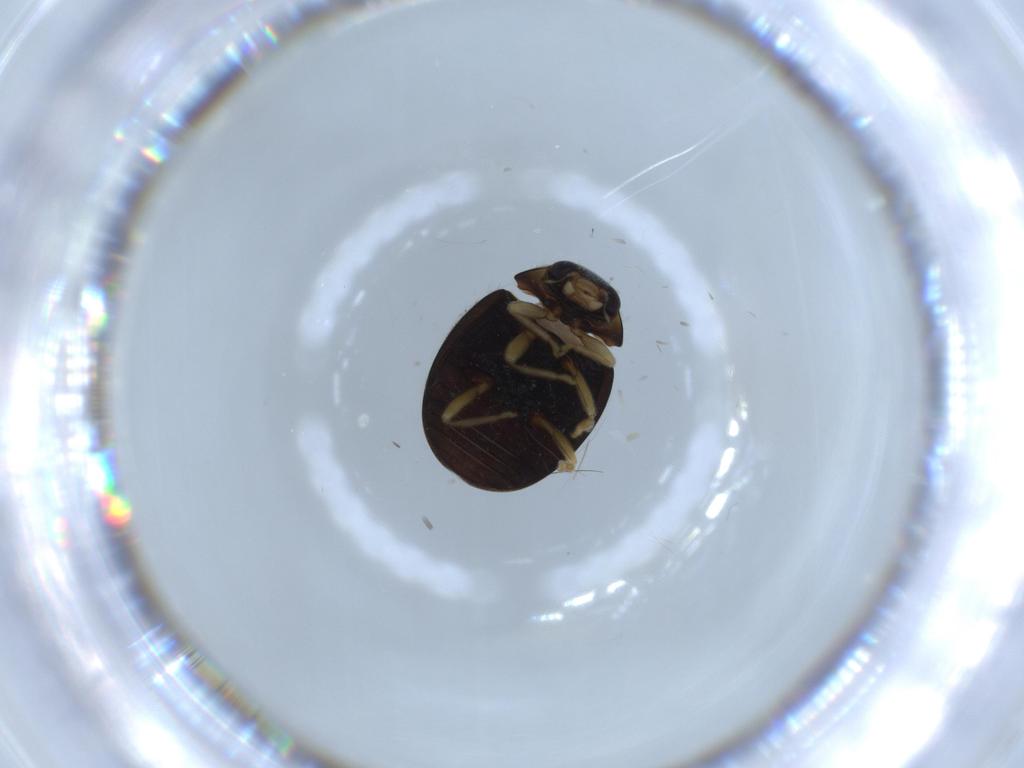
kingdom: Animalia
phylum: Arthropoda
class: Insecta
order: Coleoptera
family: Coccinellidae
